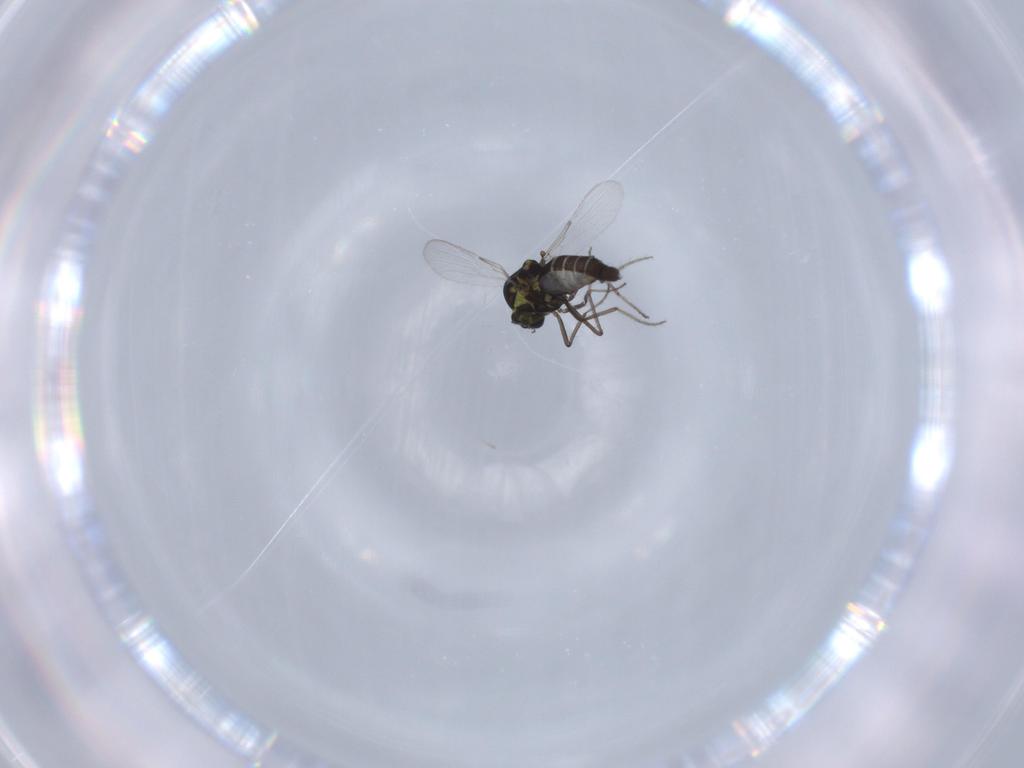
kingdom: Animalia
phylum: Arthropoda
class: Insecta
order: Diptera
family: Ceratopogonidae
